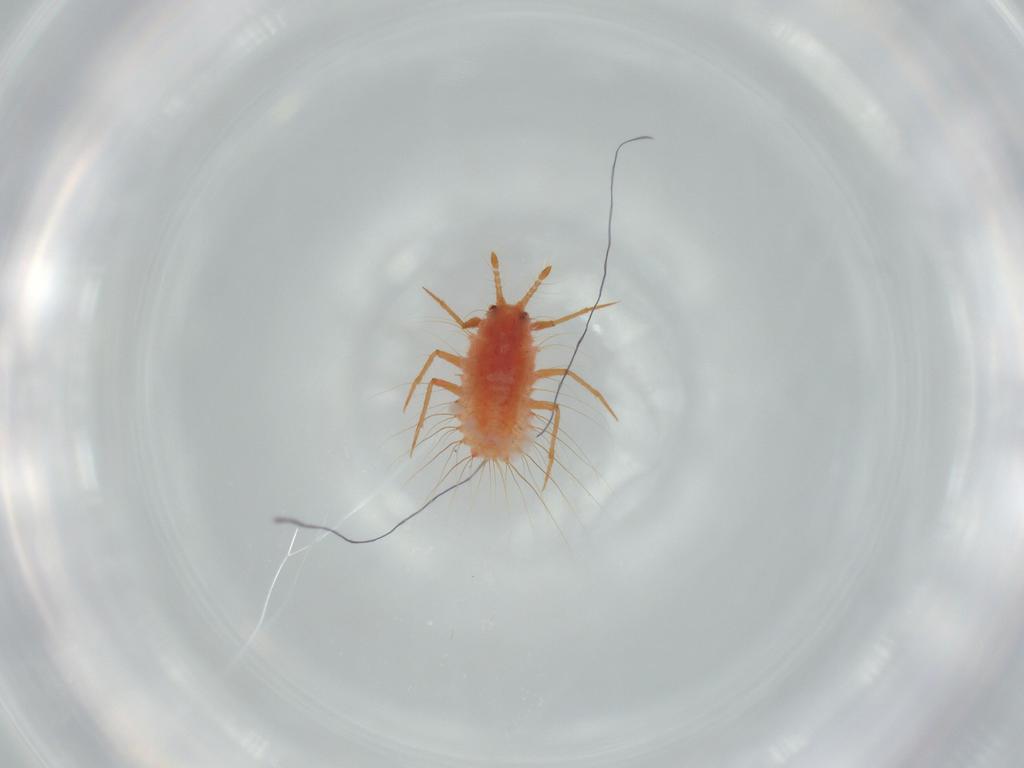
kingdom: Animalia
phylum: Arthropoda
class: Insecta
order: Hemiptera
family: Monophlebidae
